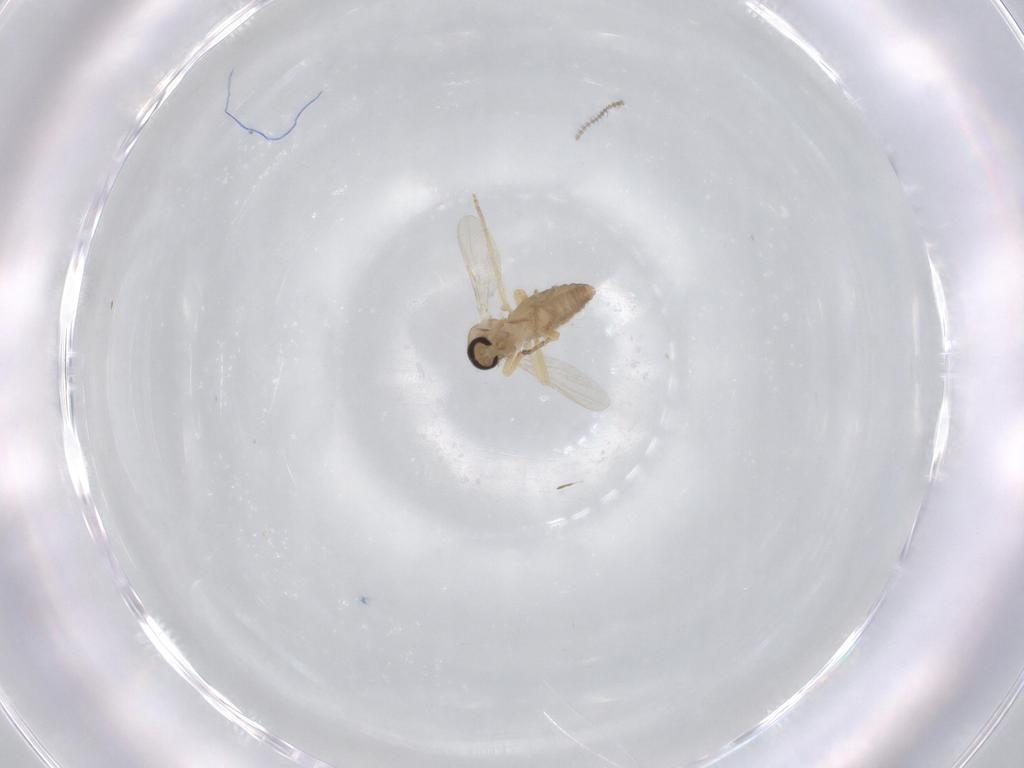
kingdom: Animalia
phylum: Arthropoda
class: Insecta
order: Diptera
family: Ceratopogonidae
